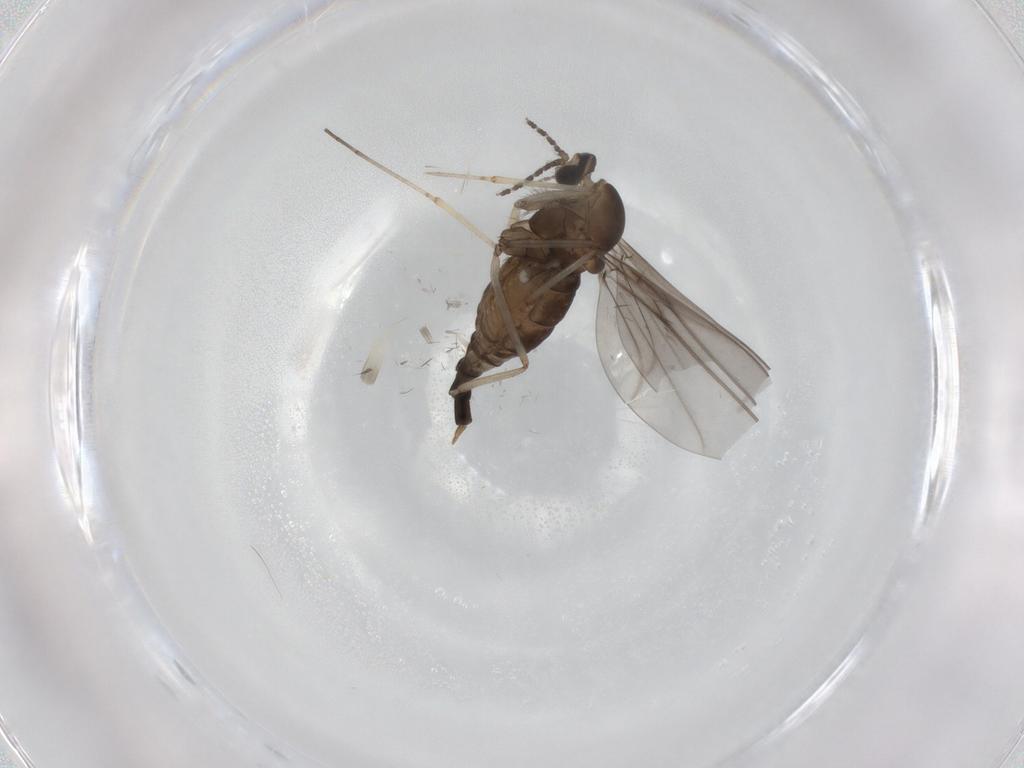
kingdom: Animalia
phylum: Arthropoda
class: Insecta
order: Diptera
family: Cecidomyiidae
